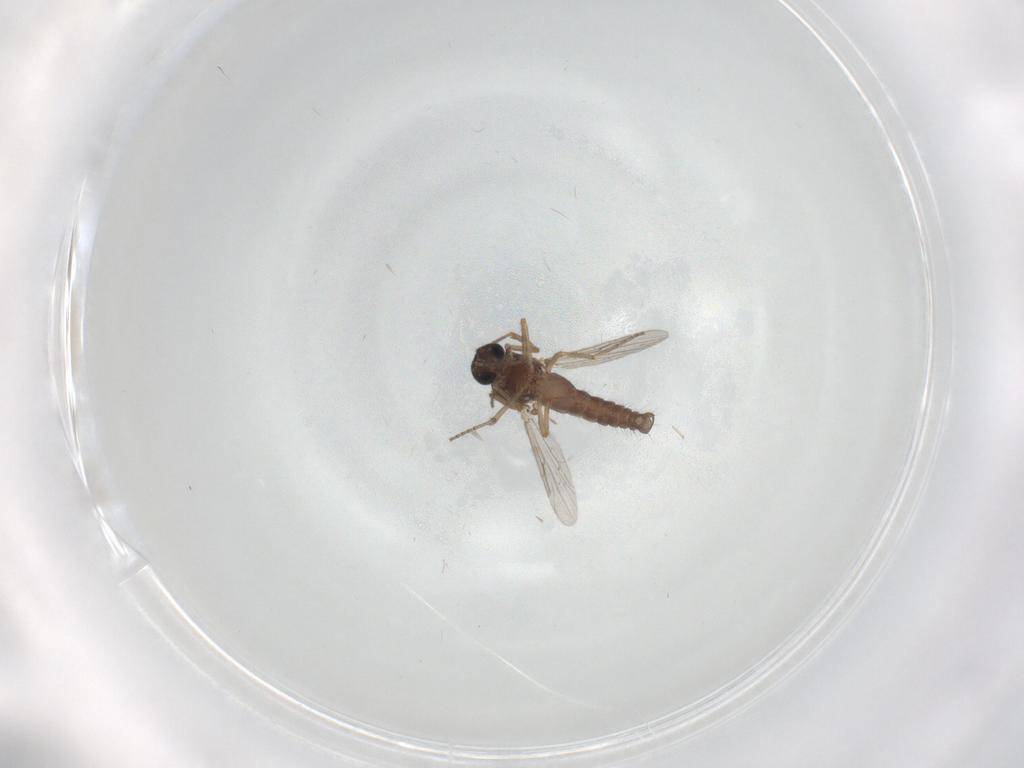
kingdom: Animalia
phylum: Arthropoda
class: Insecta
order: Diptera
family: Ceratopogonidae
